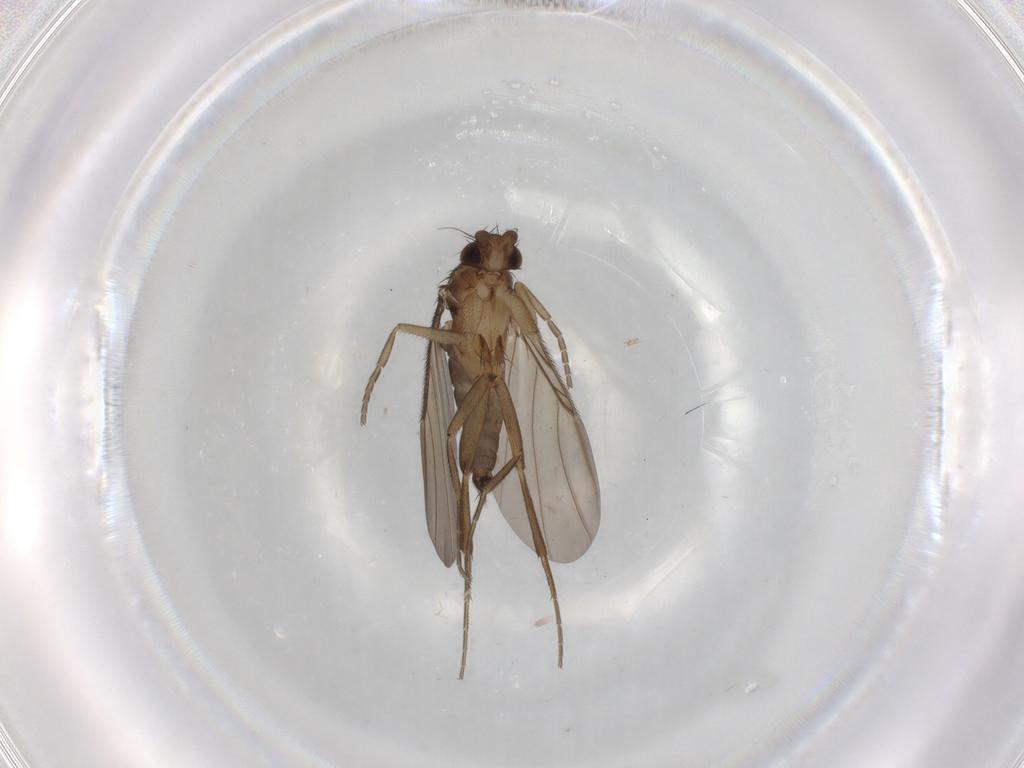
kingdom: Animalia
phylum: Arthropoda
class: Insecta
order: Diptera
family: Phoridae
